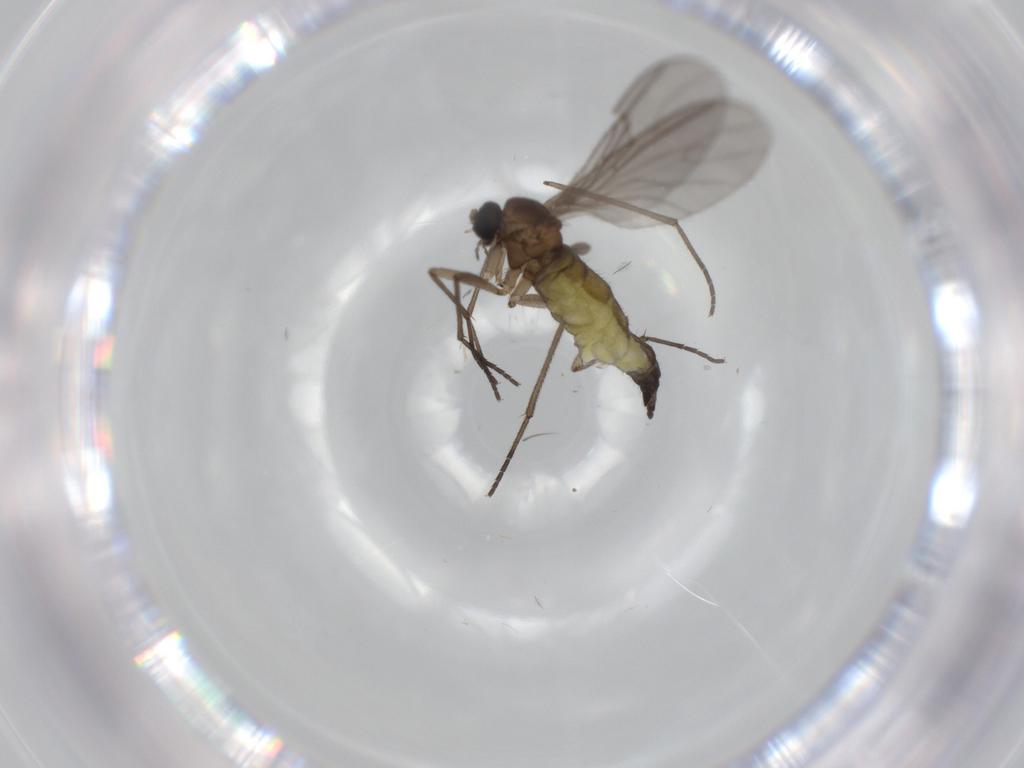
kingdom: Animalia
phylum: Arthropoda
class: Insecta
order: Diptera
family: Sciaridae
